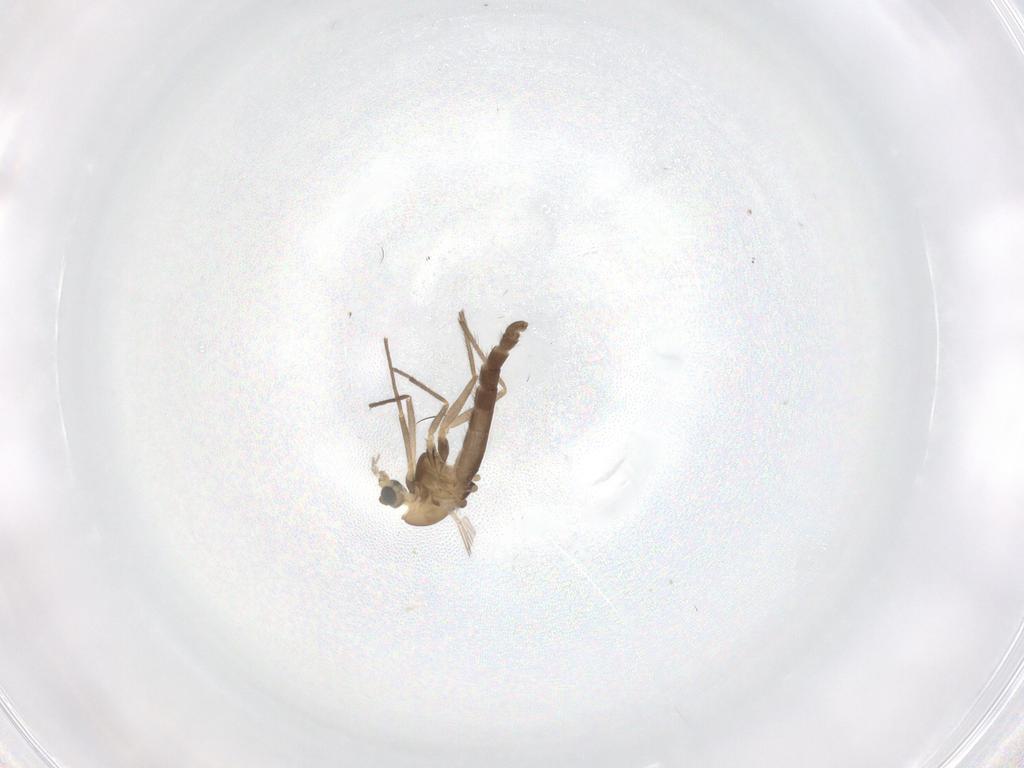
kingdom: Animalia
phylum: Arthropoda
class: Insecta
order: Diptera
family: Chironomidae
